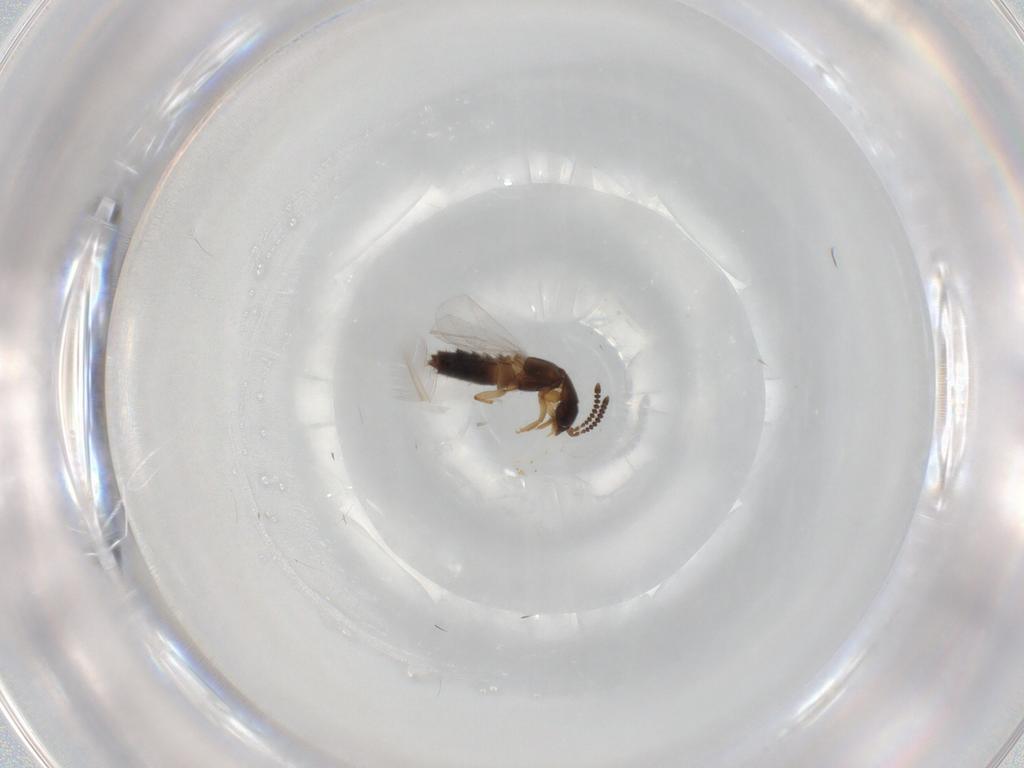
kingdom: Animalia
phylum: Arthropoda
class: Insecta
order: Coleoptera
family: Staphylinidae
